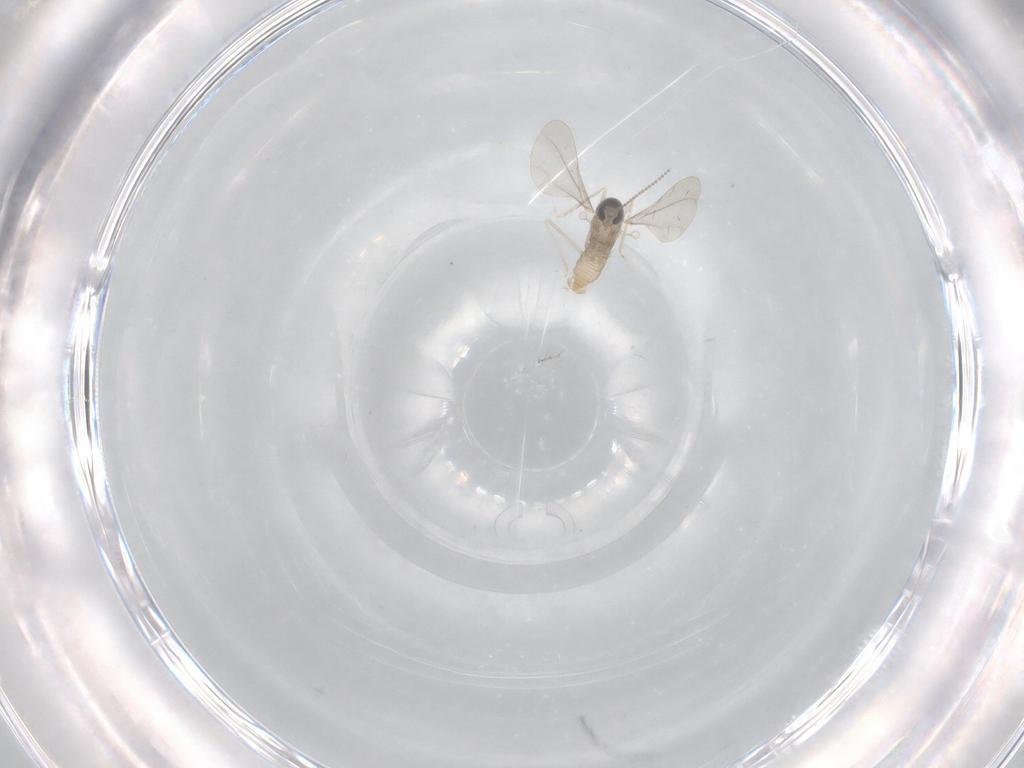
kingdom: Animalia
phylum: Arthropoda
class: Insecta
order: Diptera
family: Cecidomyiidae
